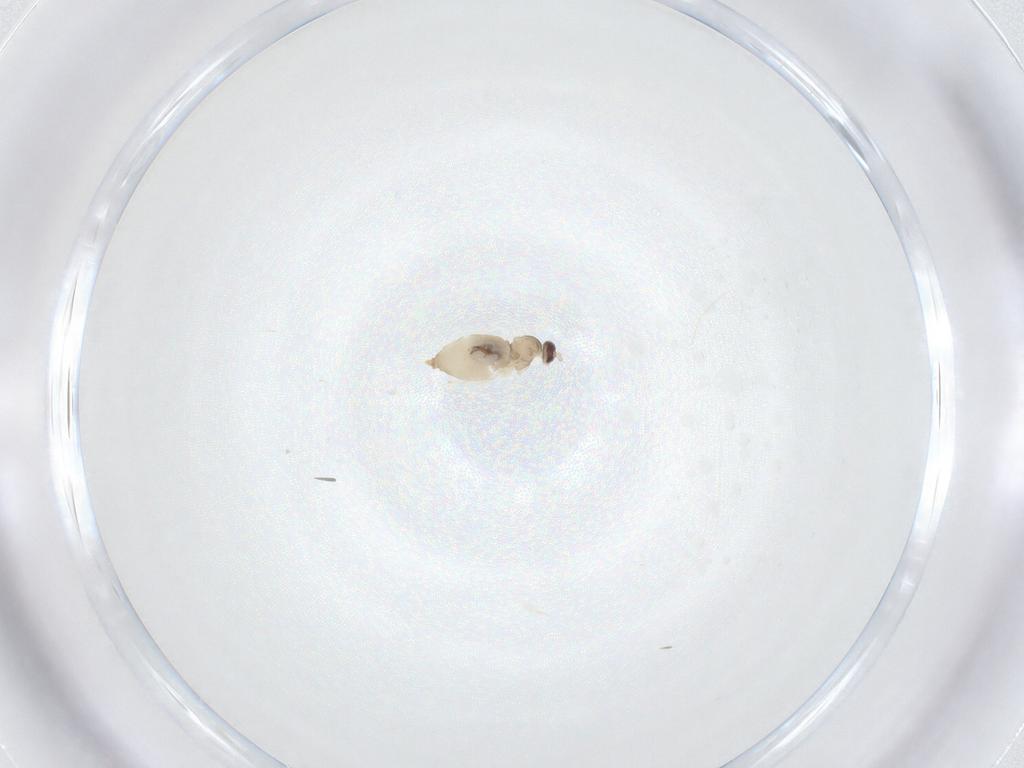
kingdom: Animalia
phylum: Arthropoda
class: Insecta
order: Diptera
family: Cecidomyiidae
